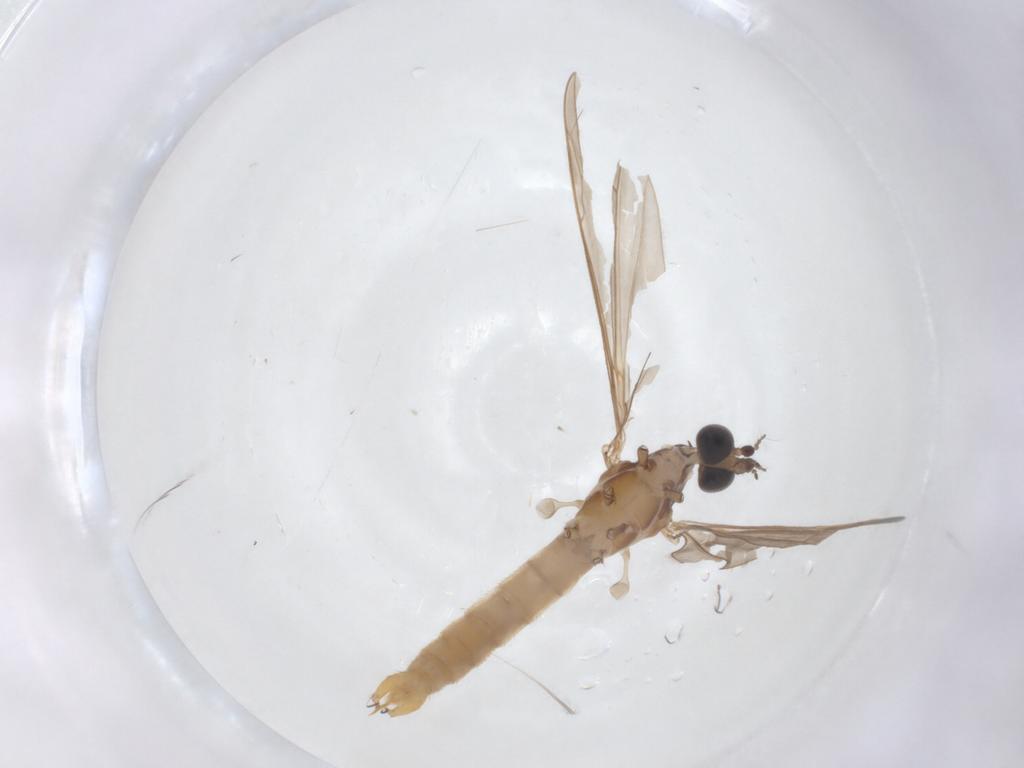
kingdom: Animalia
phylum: Arthropoda
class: Insecta
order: Diptera
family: Limoniidae
